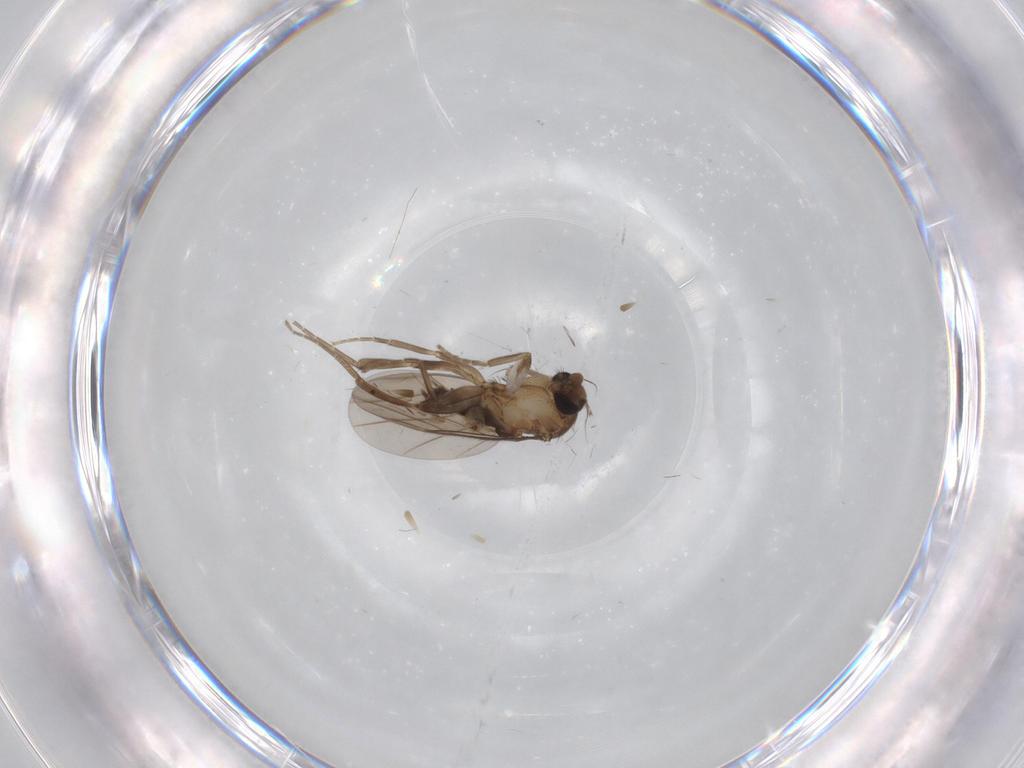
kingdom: Animalia
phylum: Arthropoda
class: Insecta
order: Diptera
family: Cecidomyiidae
